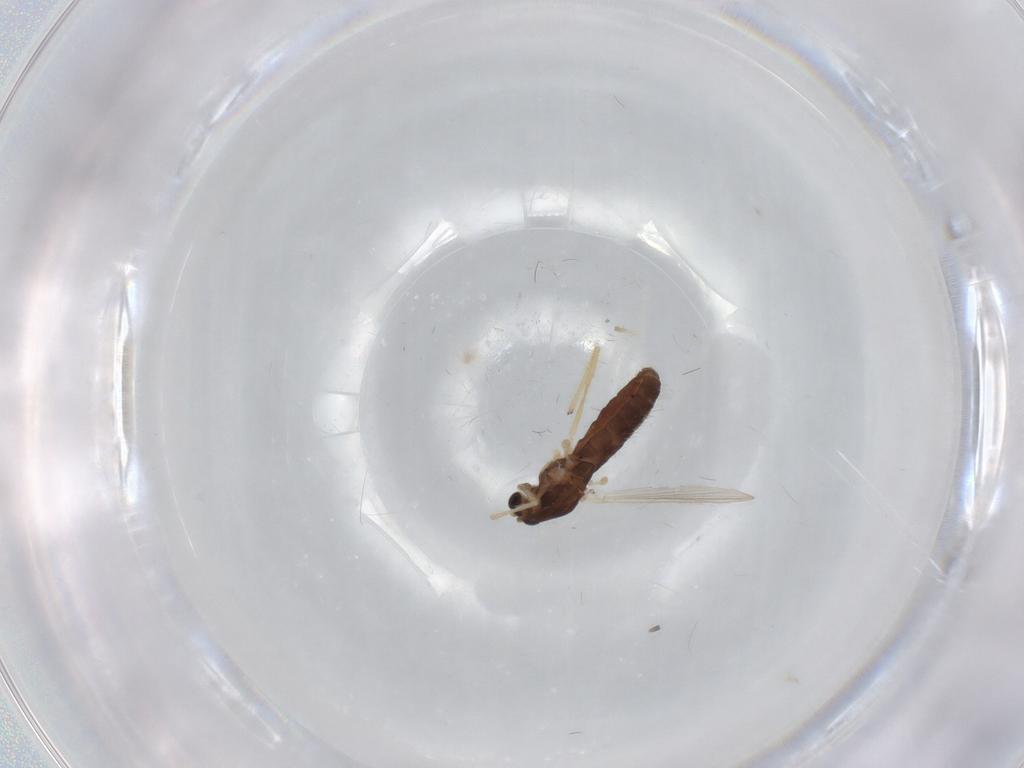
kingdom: Animalia
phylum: Arthropoda
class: Insecta
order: Diptera
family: Chironomidae
